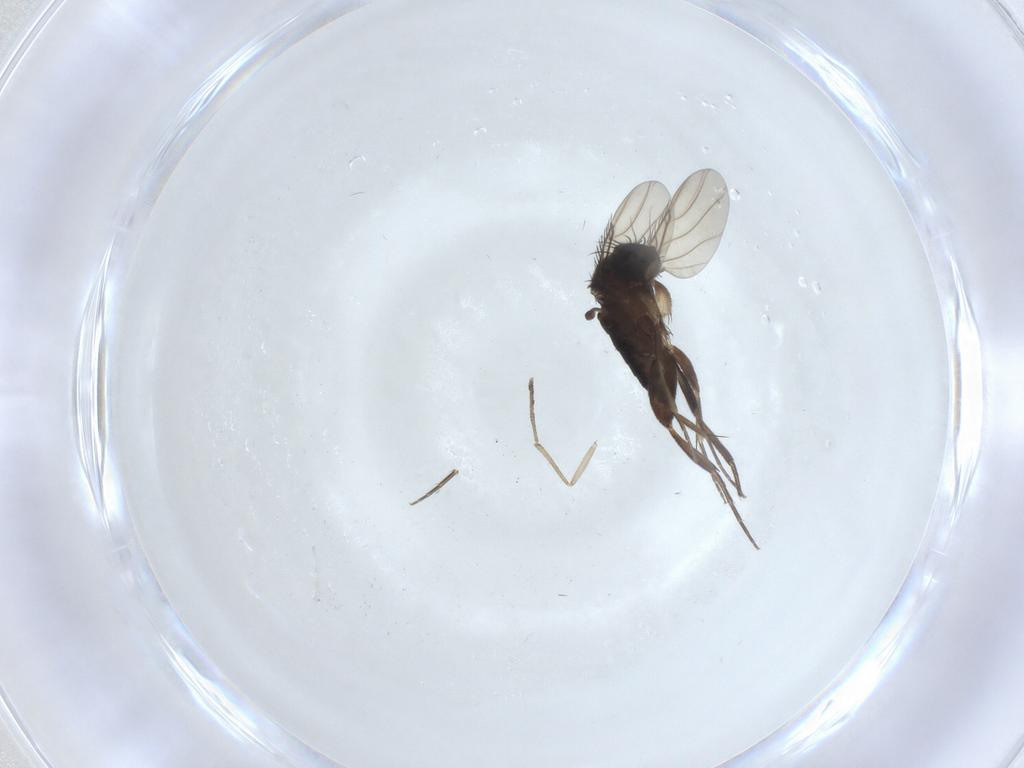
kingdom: Animalia
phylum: Arthropoda
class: Insecta
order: Diptera
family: Phoridae
